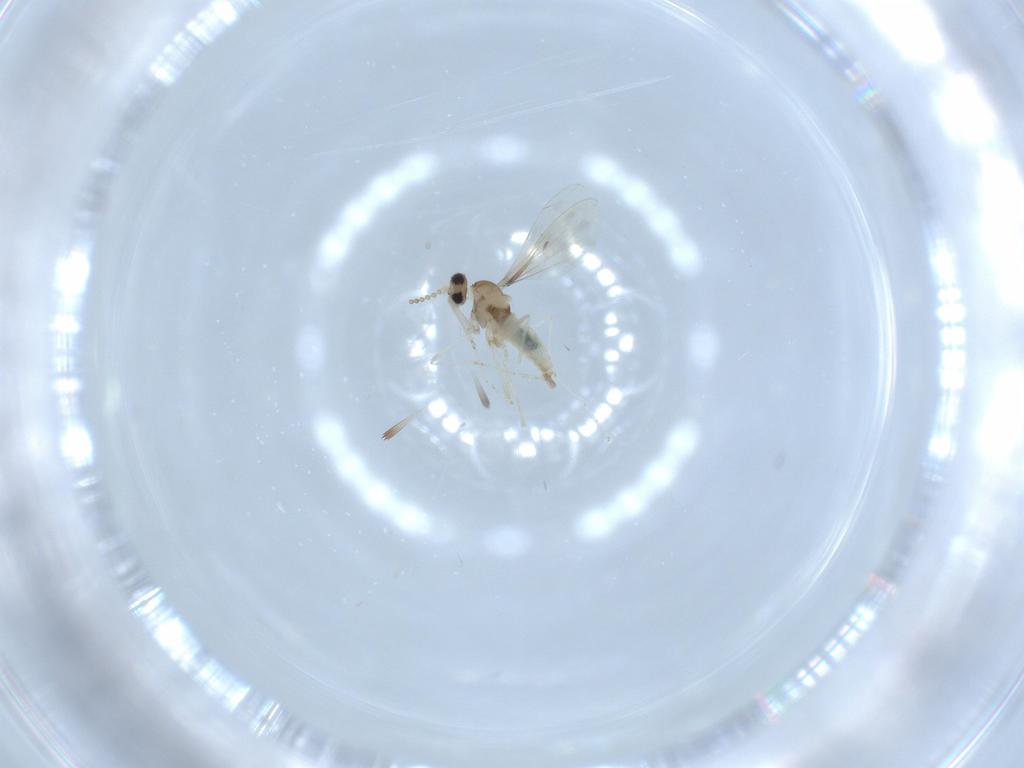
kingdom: Animalia
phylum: Arthropoda
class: Insecta
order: Diptera
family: Cecidomyiidae
